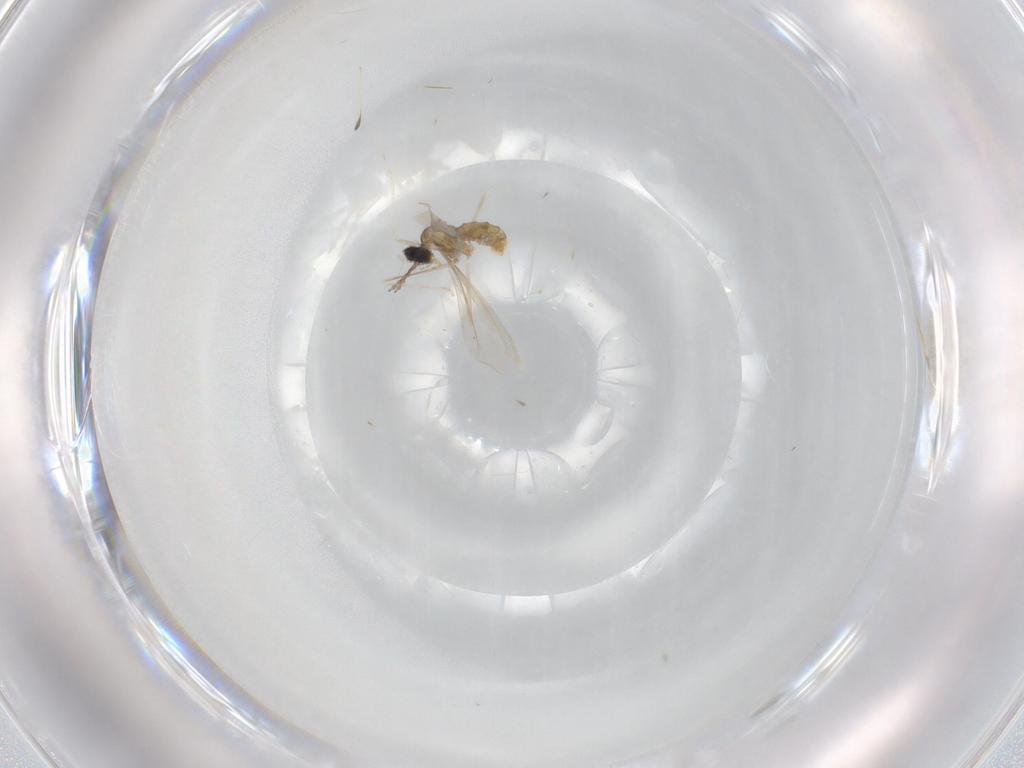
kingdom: Animalia
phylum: Arthropoda
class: Insecta
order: Diptera
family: Cecidomyiidae
